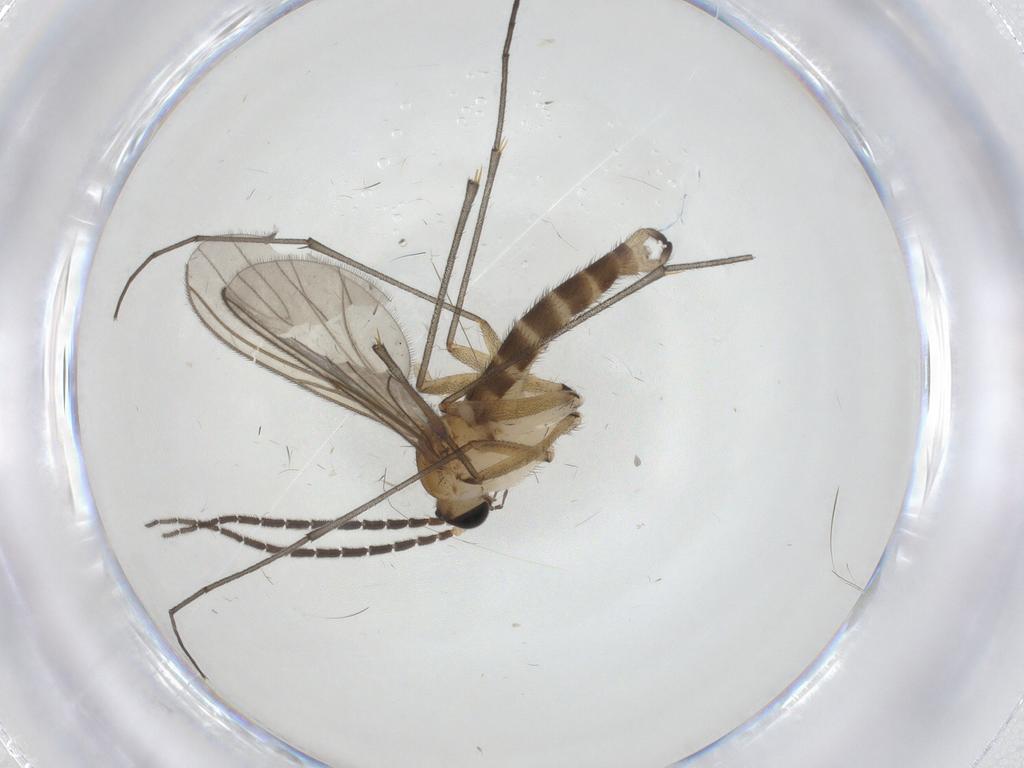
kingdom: Animalia
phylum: Arthropoda
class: Insecta
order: Diptera
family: Sciaridae
